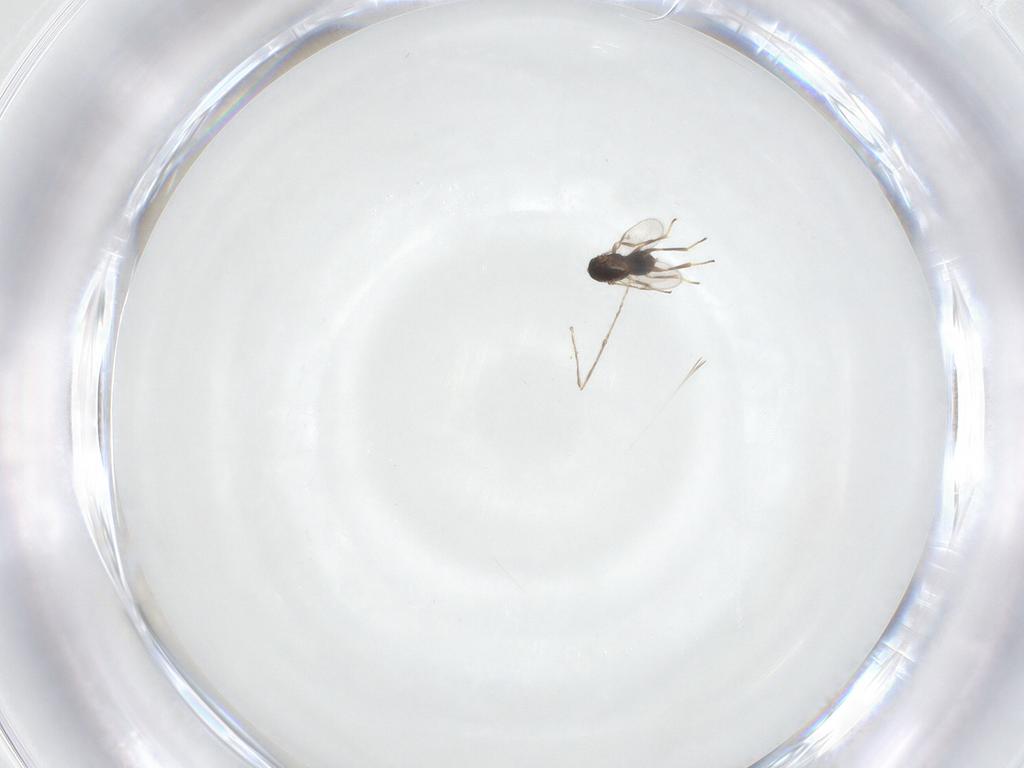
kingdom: Animalia
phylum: Arthropoda
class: Insecta
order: Hymenoptera
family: Encyrtidae
